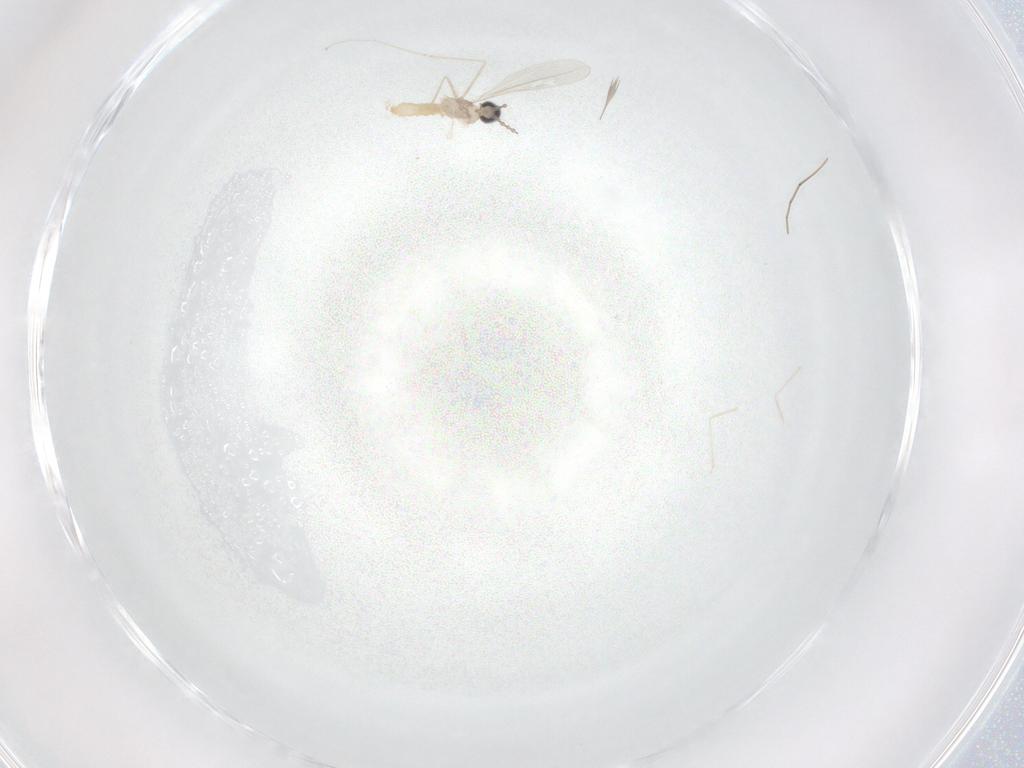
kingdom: Animalia
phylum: Arthropoda
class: Insecta
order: Diptera
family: Cecidomyiidae
